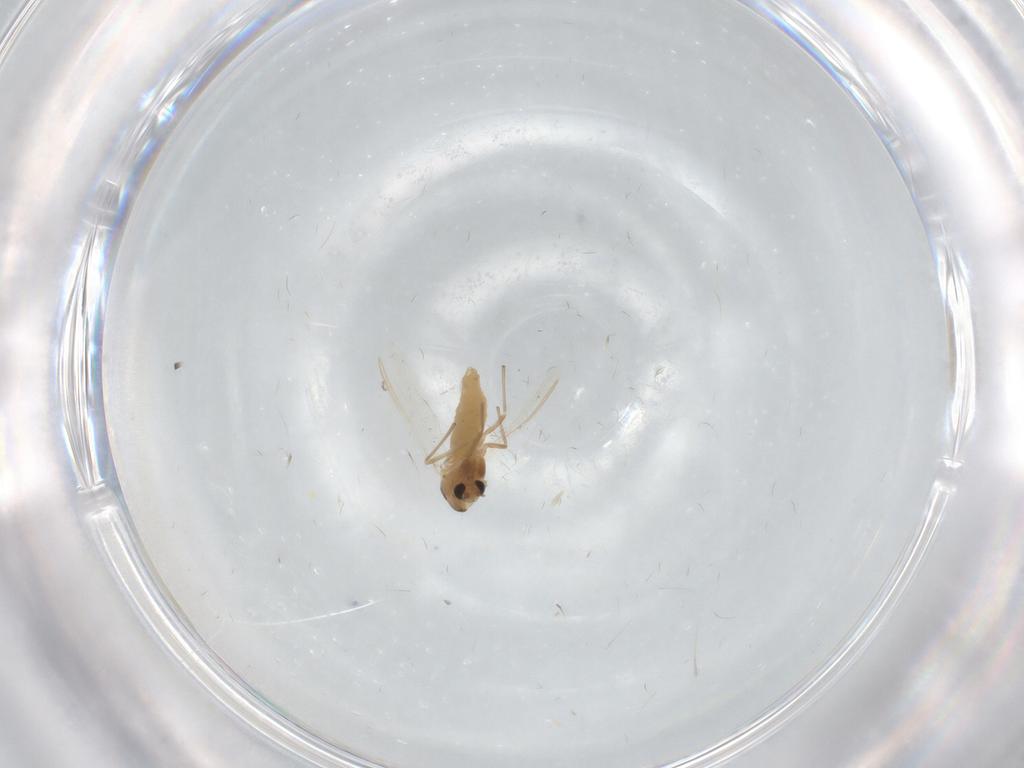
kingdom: Animalia
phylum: Arthropoda
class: Insecta
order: Diptera
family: Chironomidae
